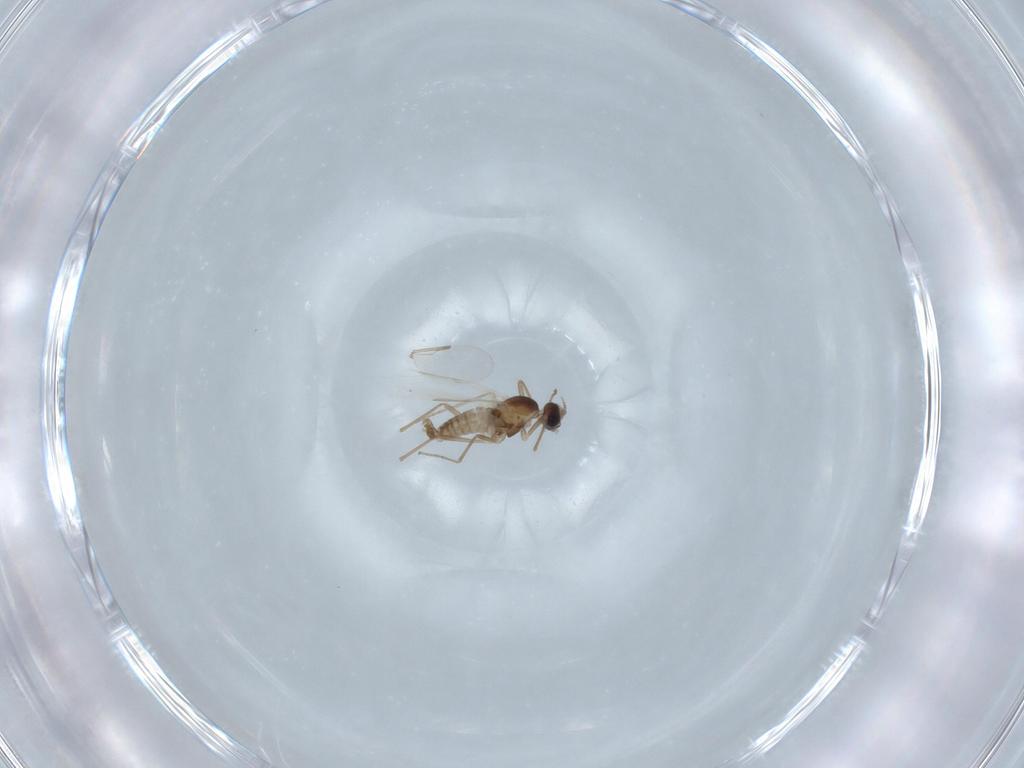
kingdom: Animalia
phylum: Arthropoda
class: Insecta
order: Diptera
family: Cecidomyiidae
